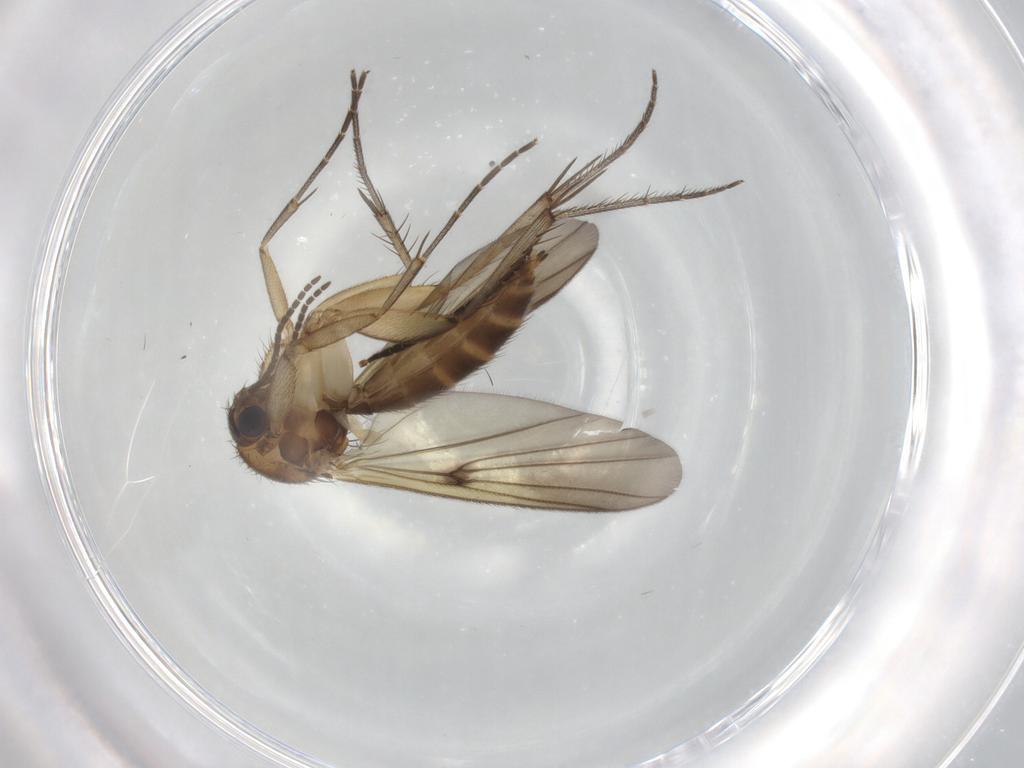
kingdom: Animalia
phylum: Arthropoda
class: Insecta
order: Diptera
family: Mycetophilidae
